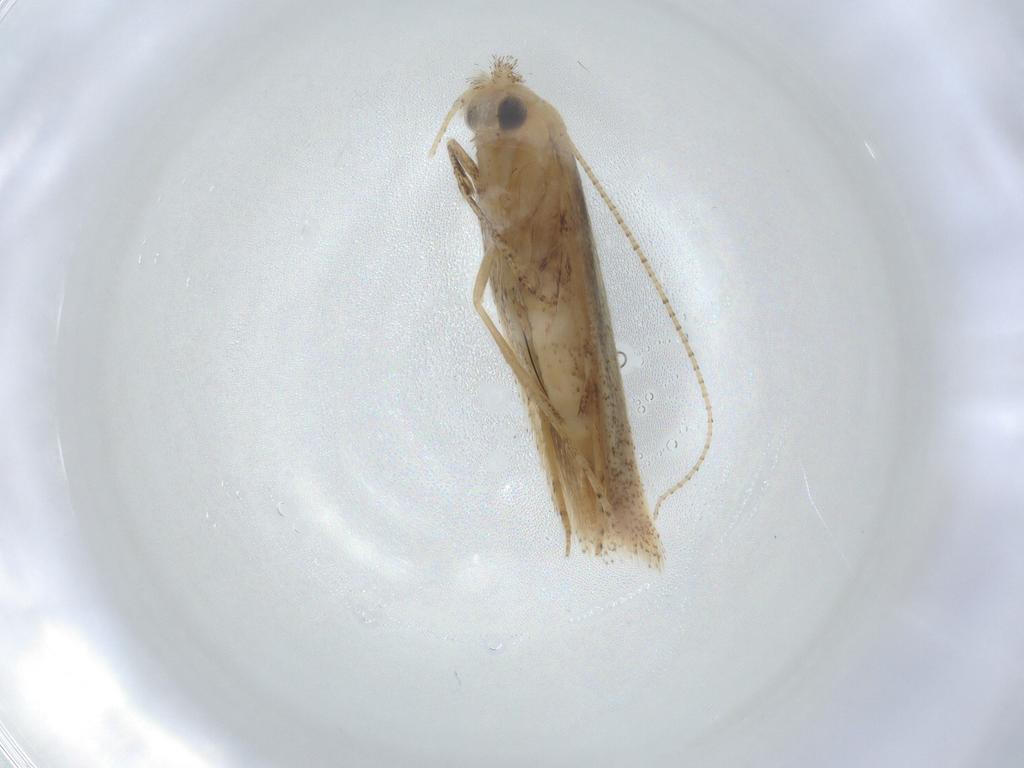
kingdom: Animalia
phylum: Arthropoda
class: Insecta
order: Lepidoptera
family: Bedelliidae
